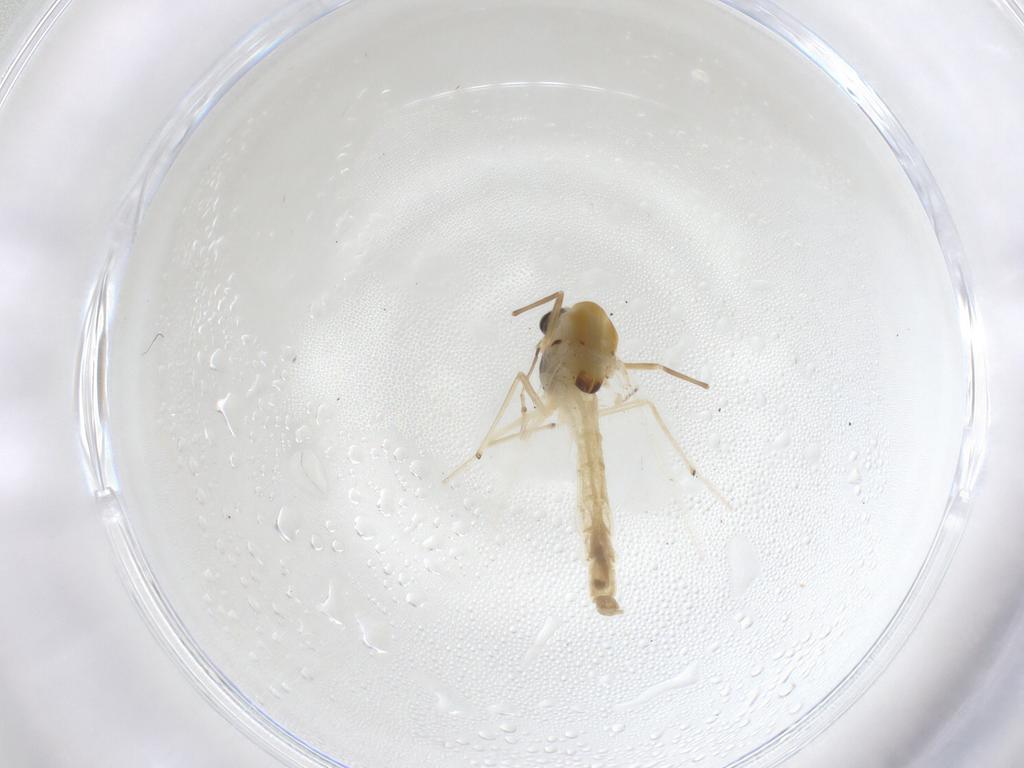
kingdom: Animalia
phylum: Arthropoda
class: Insecta
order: Diptera
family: Chironomidae
